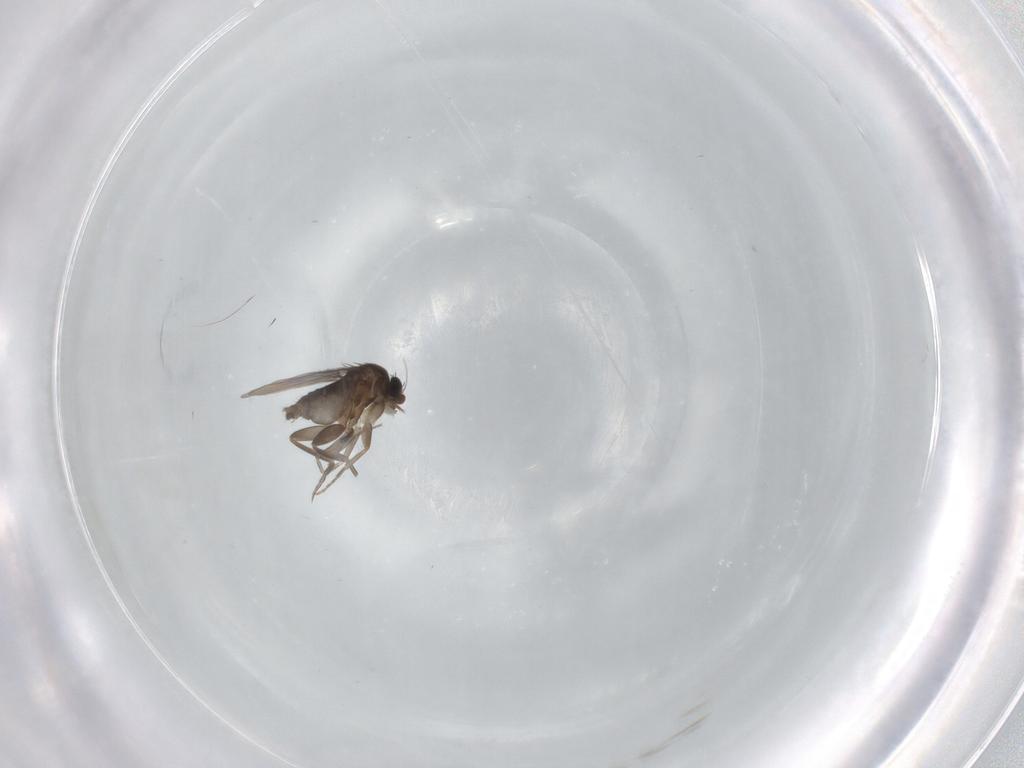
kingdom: Animalia
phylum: Arthropoda
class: Insecta
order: Diptera
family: Phoridae
